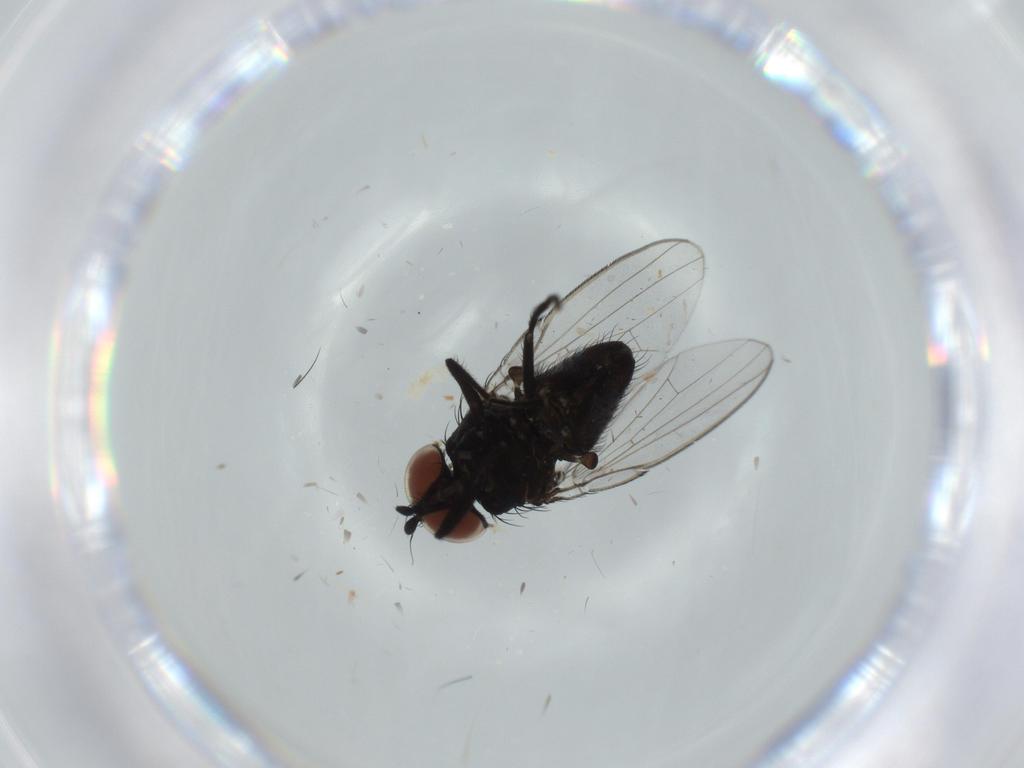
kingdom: Animalia
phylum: Arthropoda
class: Insecta
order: Diptera
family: Milichiidae
